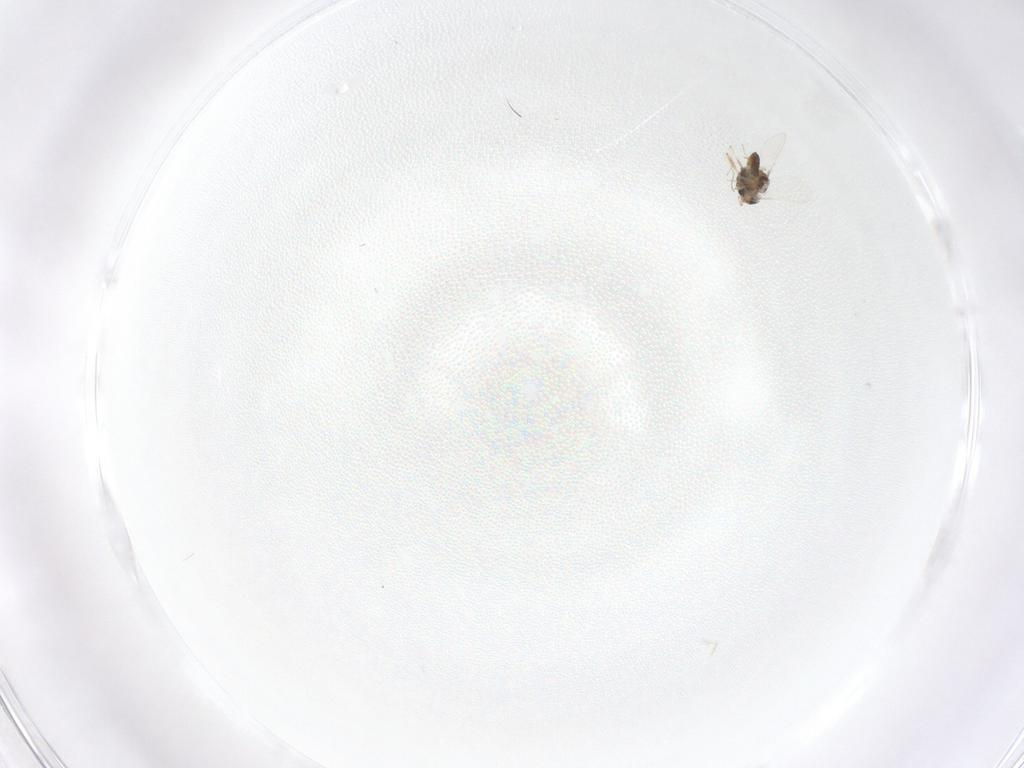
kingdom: Animalia
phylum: Arthropoda
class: Insecta
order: Diptera
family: Chironomidae
